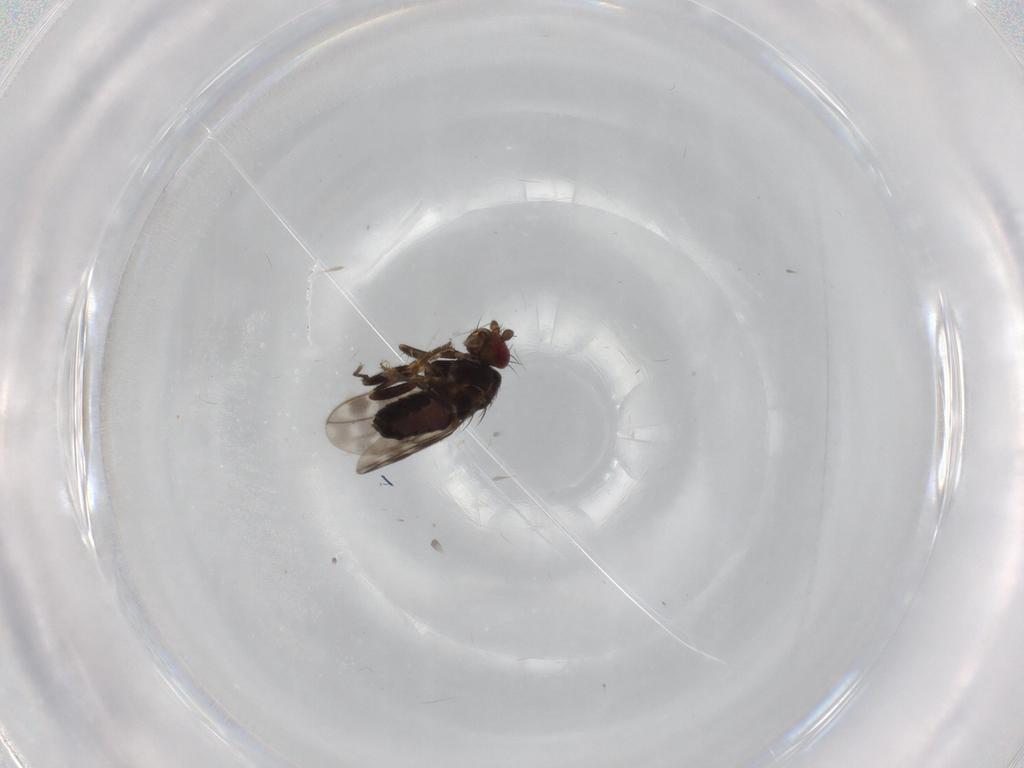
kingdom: Animalia
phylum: Arthropoda
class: Insecta
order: Diptera
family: Sphaeroceridae
